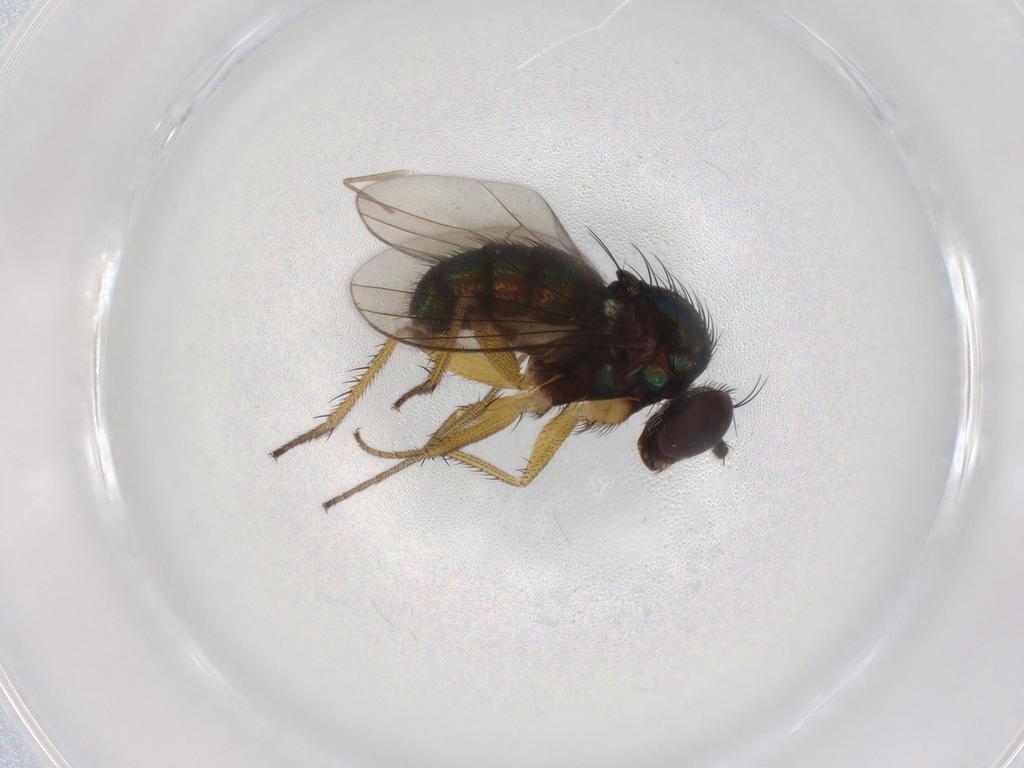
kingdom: Animalia
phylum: Arthropoda
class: Insecta
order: Diptera
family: Dolichopodidae
